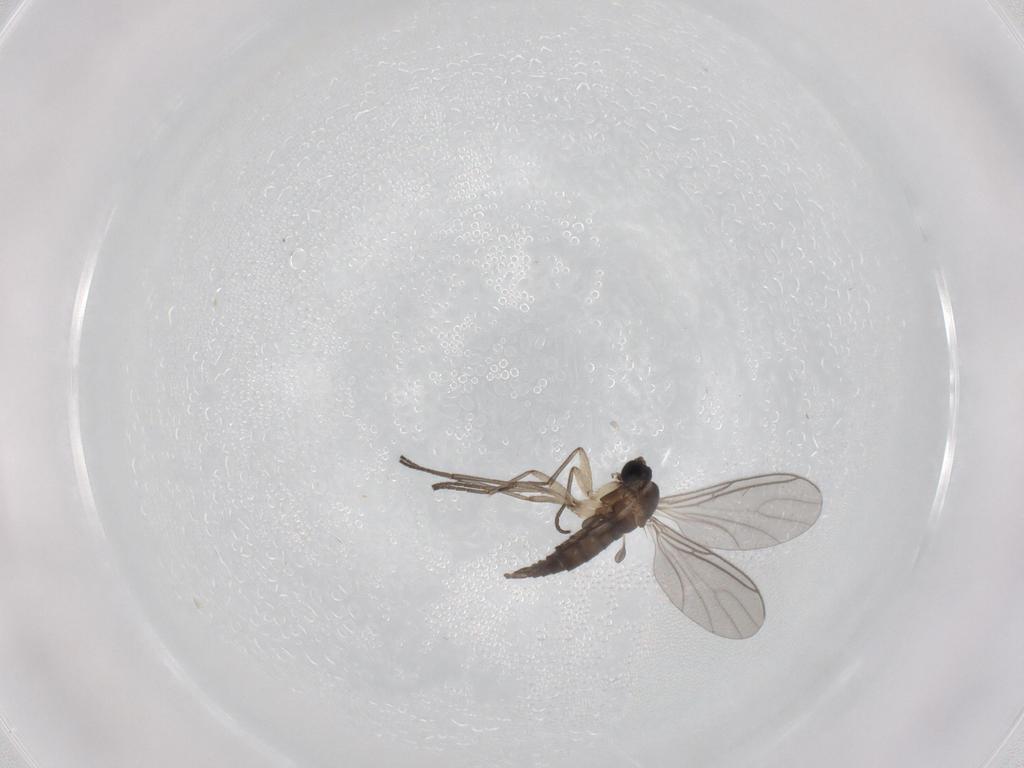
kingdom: Animalia
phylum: Arthropoda
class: Insecta
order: Diptera
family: Sciaridae
